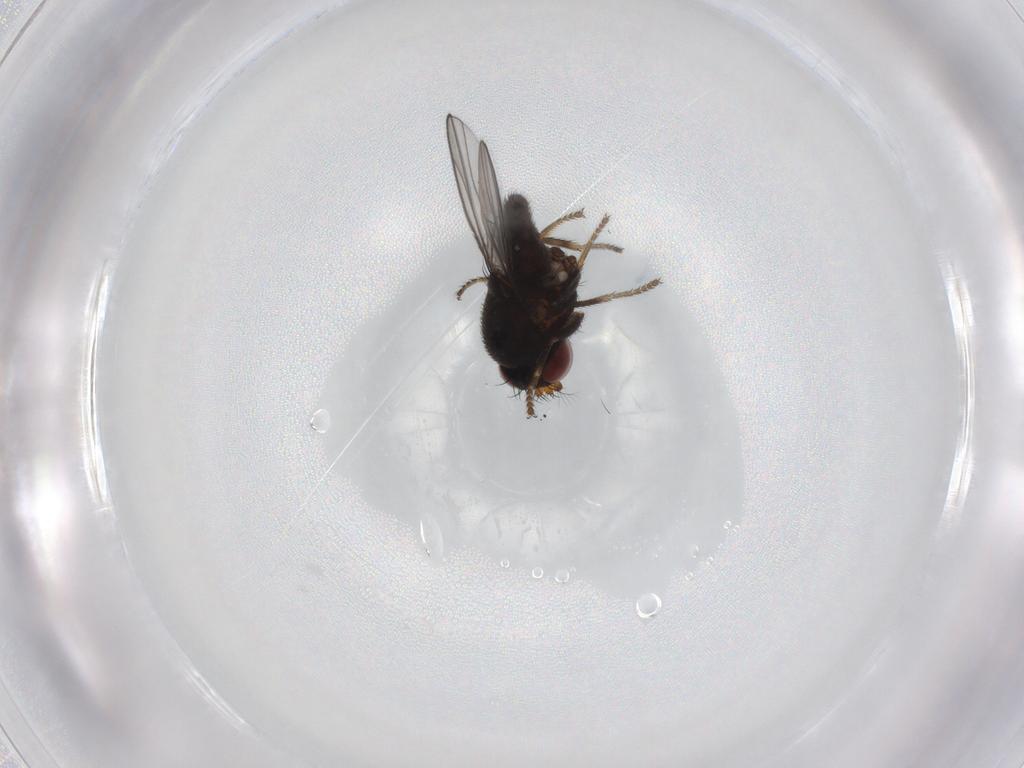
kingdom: Animalia
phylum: Arthropoda
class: Insecta
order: Diptera
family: Ephydridae
